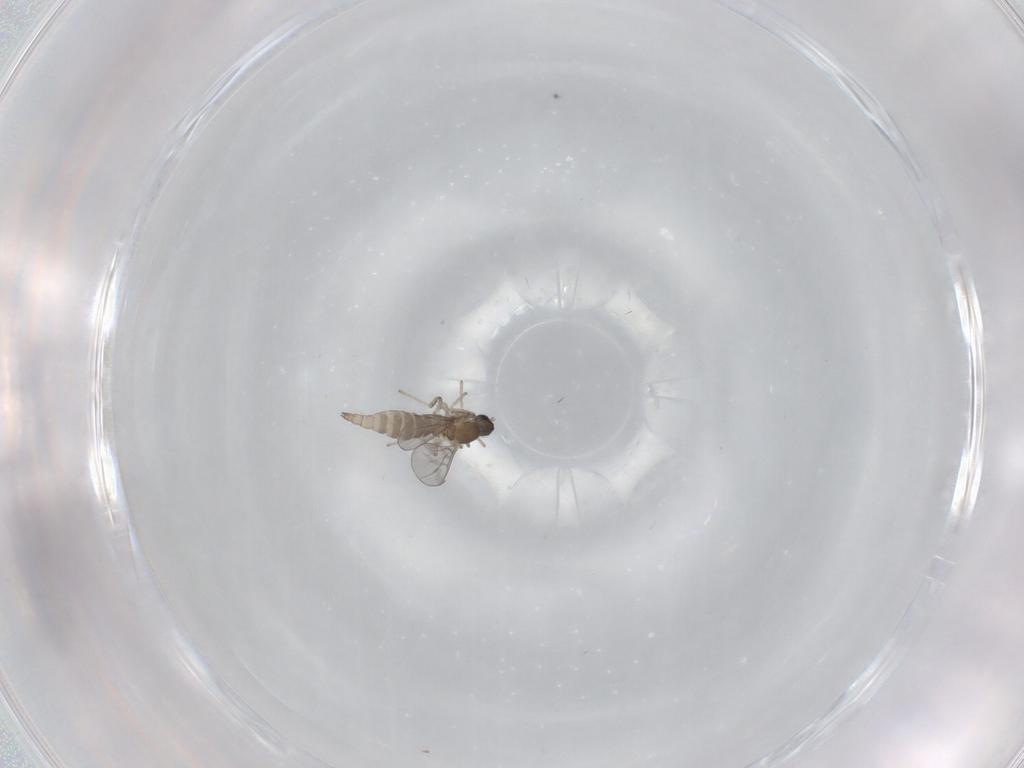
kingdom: Animalia
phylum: Arthropoda
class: Insecta
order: Diptera
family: Cecidomyiidae
